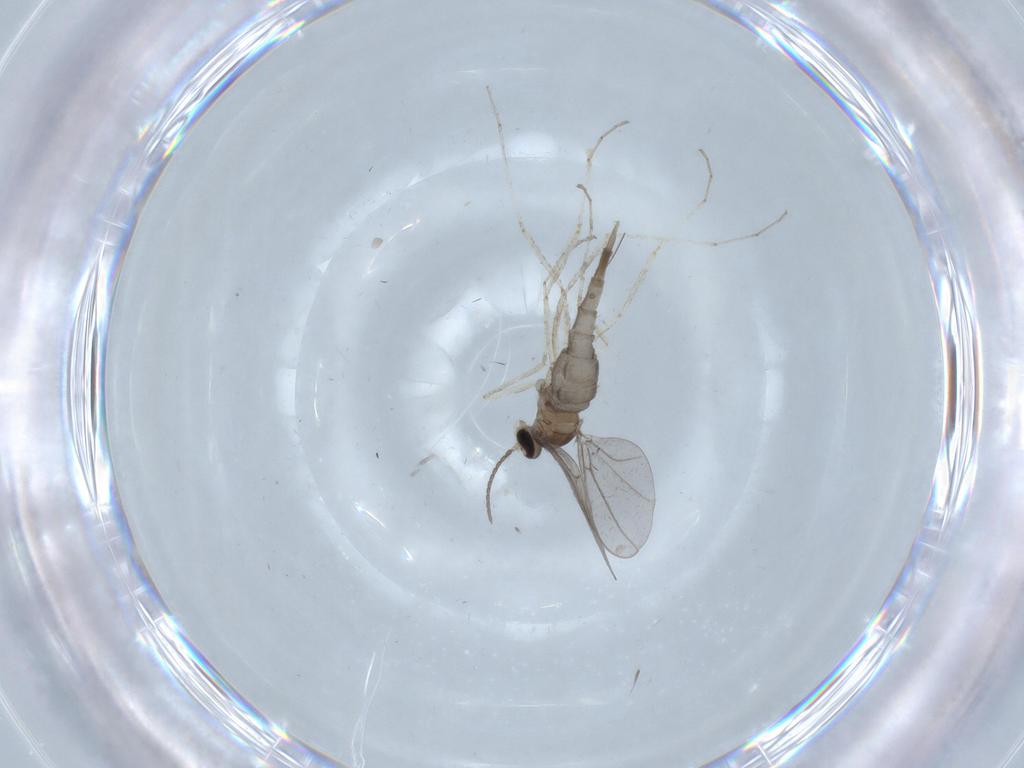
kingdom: Animalia
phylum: Arthropoda
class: Insecta
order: Diptera
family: Cecidomyiidae
